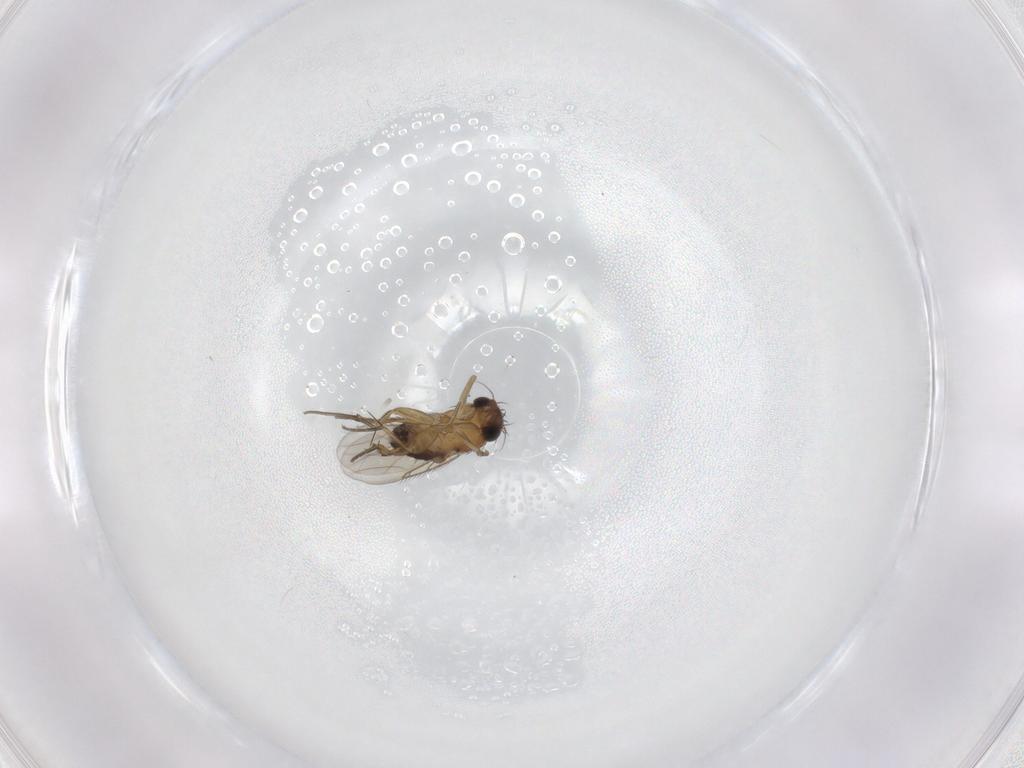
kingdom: Animalia
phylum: Arthropoda
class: Insecta
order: Diptera
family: Phoridae
